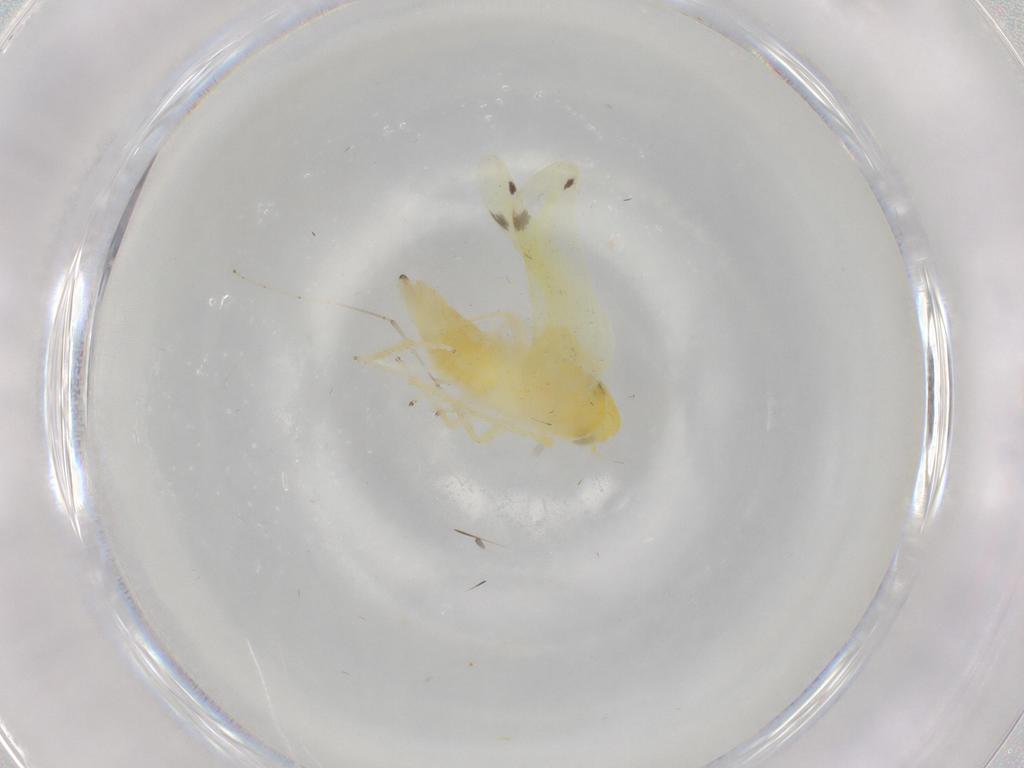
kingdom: Animalia
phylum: Arthropoda
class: Insecta
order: Hemiptera
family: Cicadellidae
